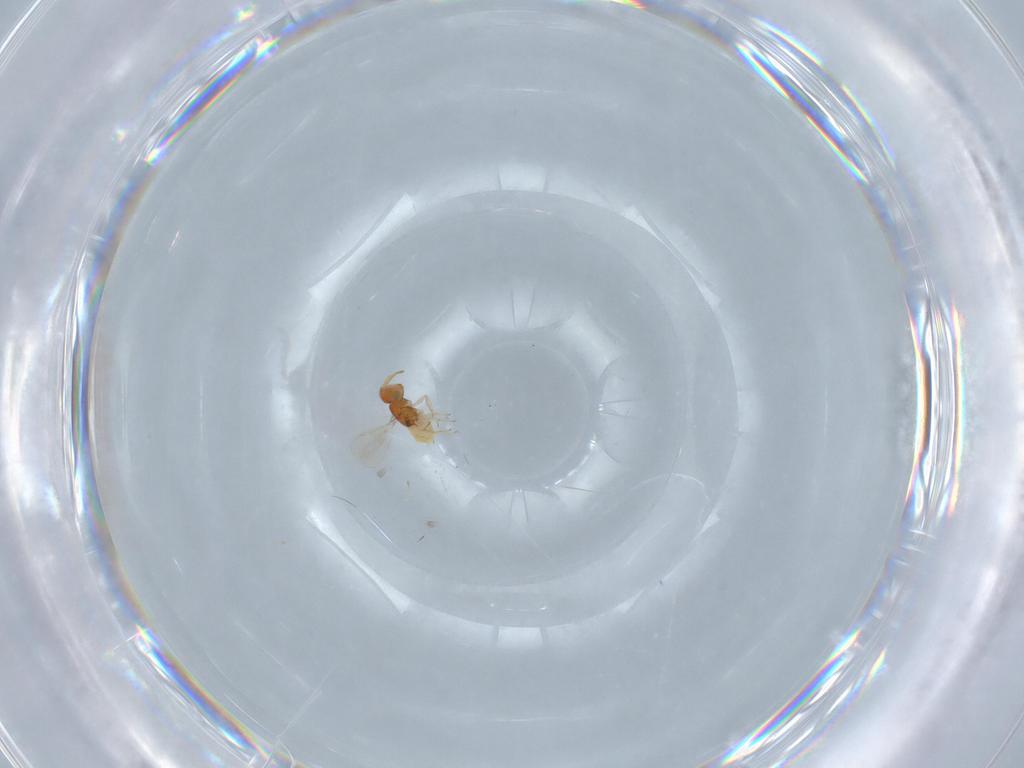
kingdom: Animalia
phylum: Arthropoda
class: Insecta
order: Hymenoptera
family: Aphelinidae
